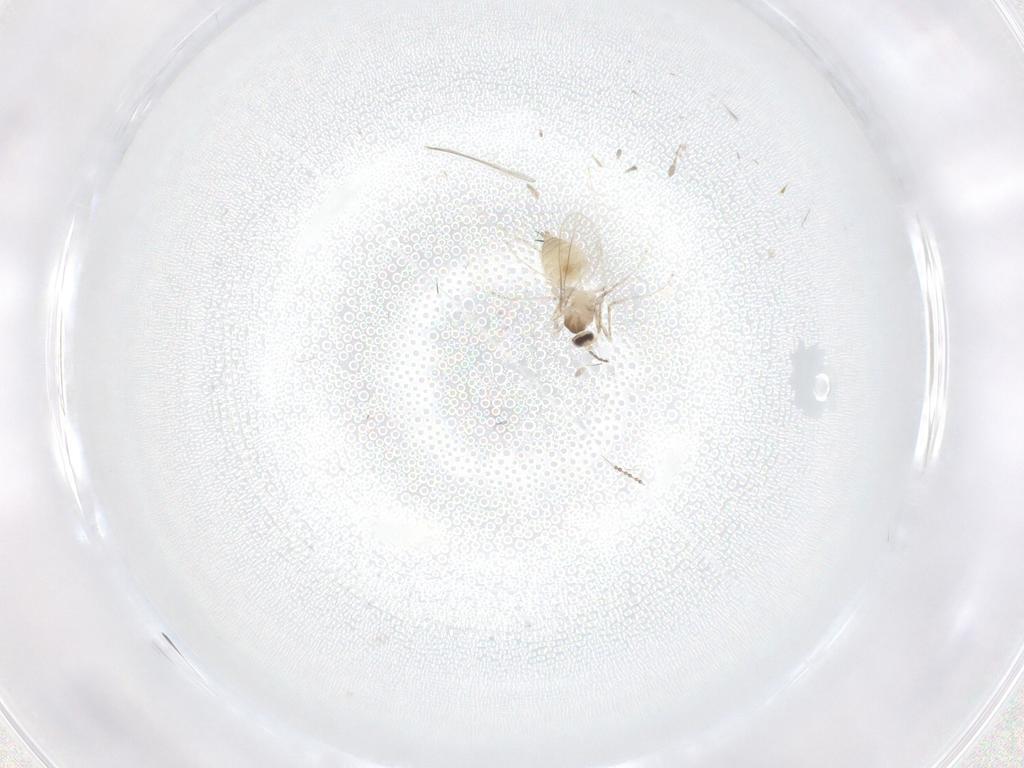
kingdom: Animalia
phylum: Arthropoda
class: Insecta
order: Diptera
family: Cecidomyiidae
